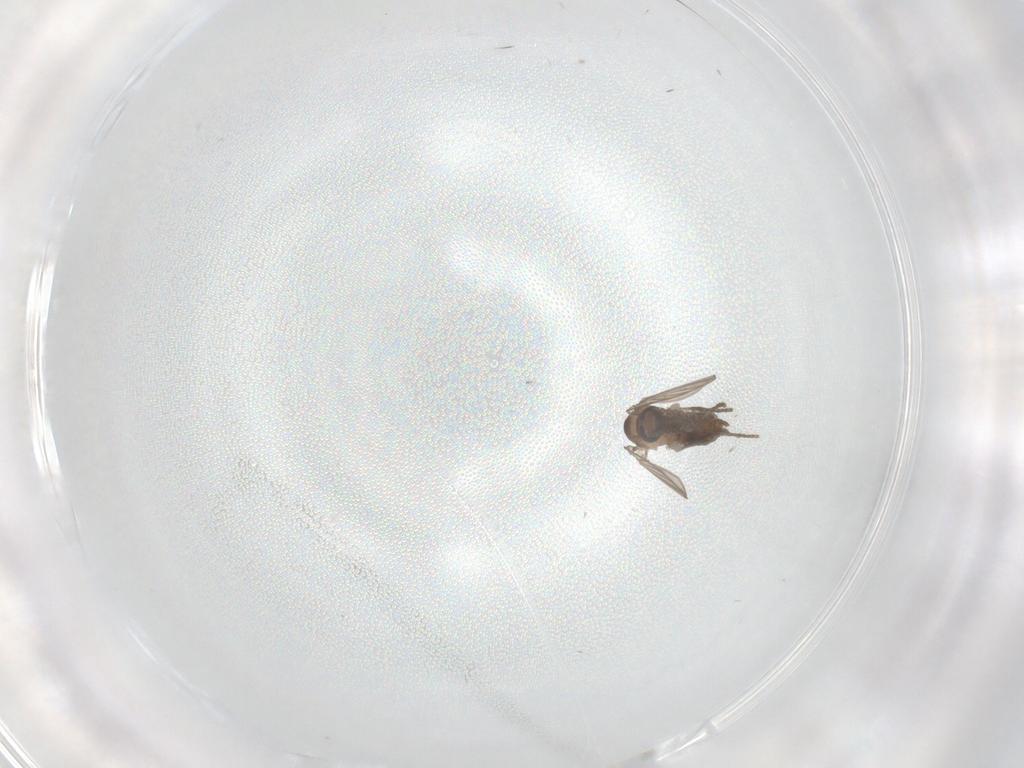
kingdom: Animalia
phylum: Arthropoda
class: Insecta
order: Diptera
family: Psychodidae
